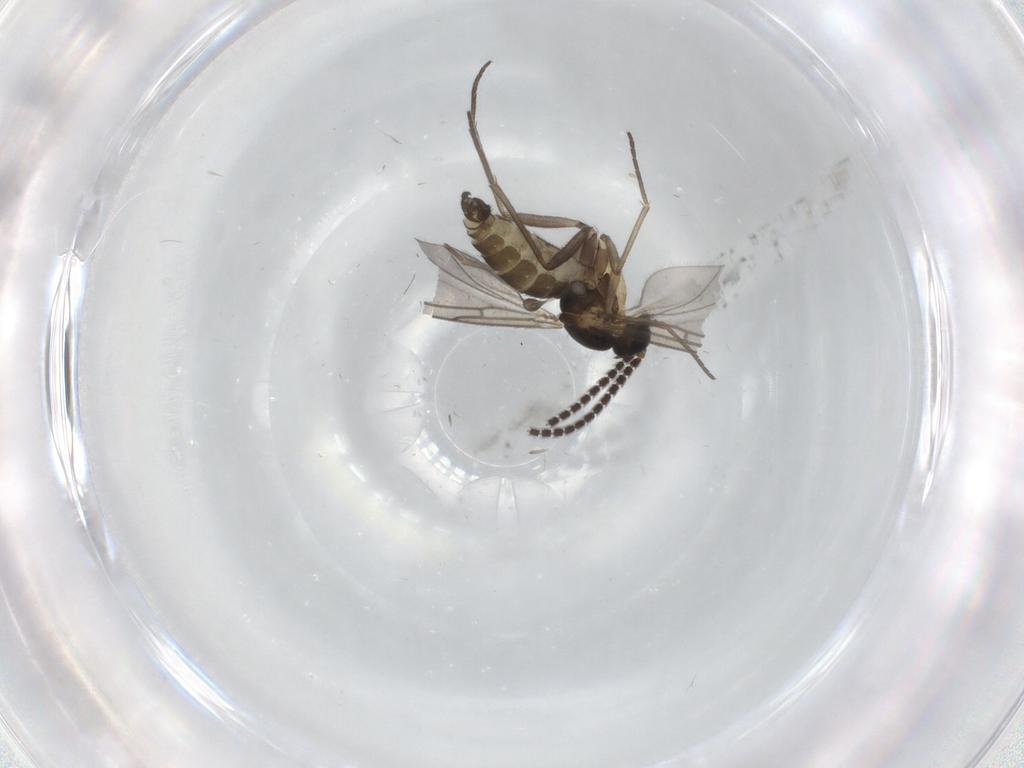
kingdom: Animalia
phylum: Arthropoda
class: Insecta
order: Diptera
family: Sciaridae
